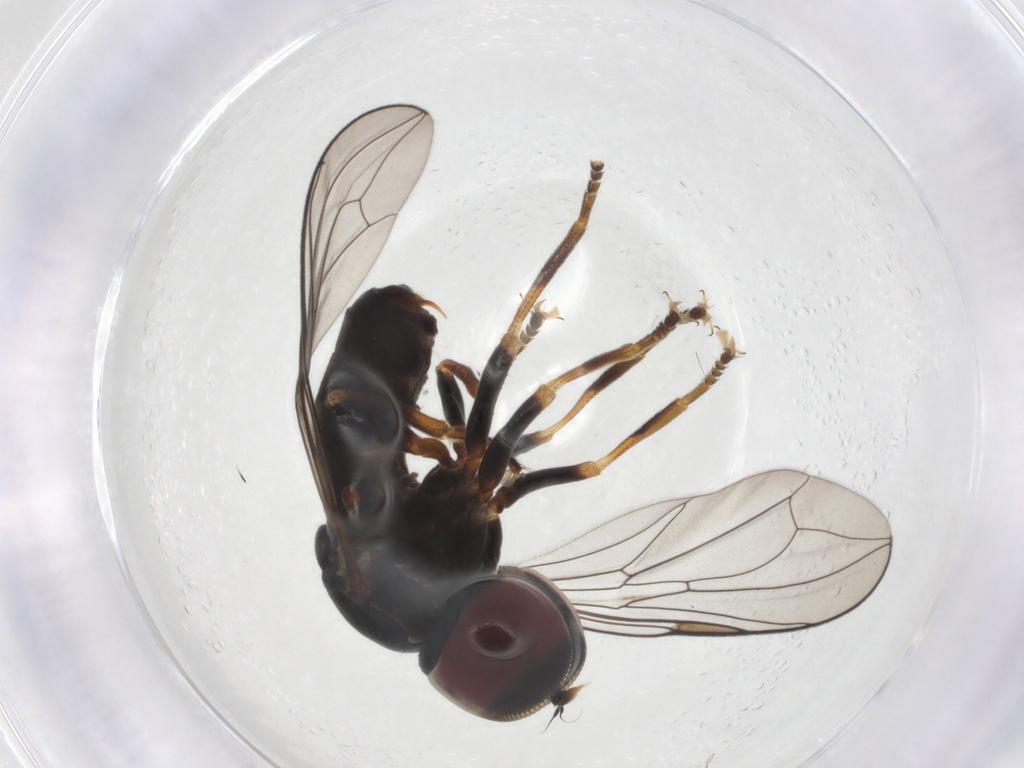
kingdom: Animalia
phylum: Arthropoda
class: Insecta
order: Diptera
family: Pipunculidae
